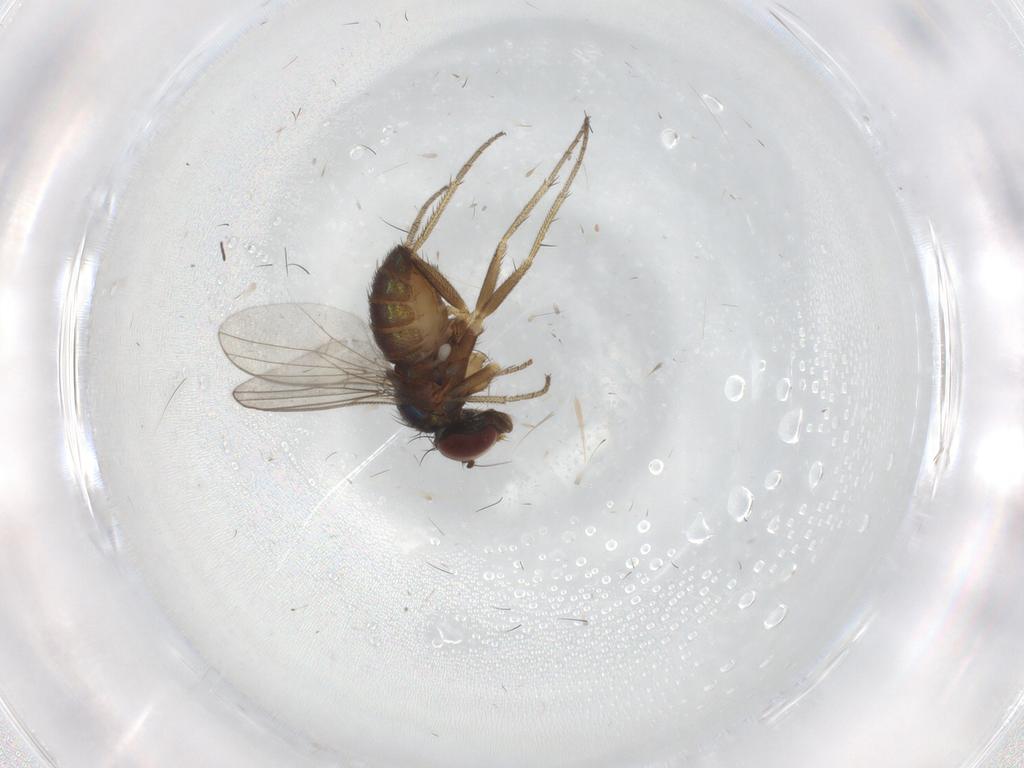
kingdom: Animalia
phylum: Arthropoda
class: Insecta
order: Diptera
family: Dolichopodidae
